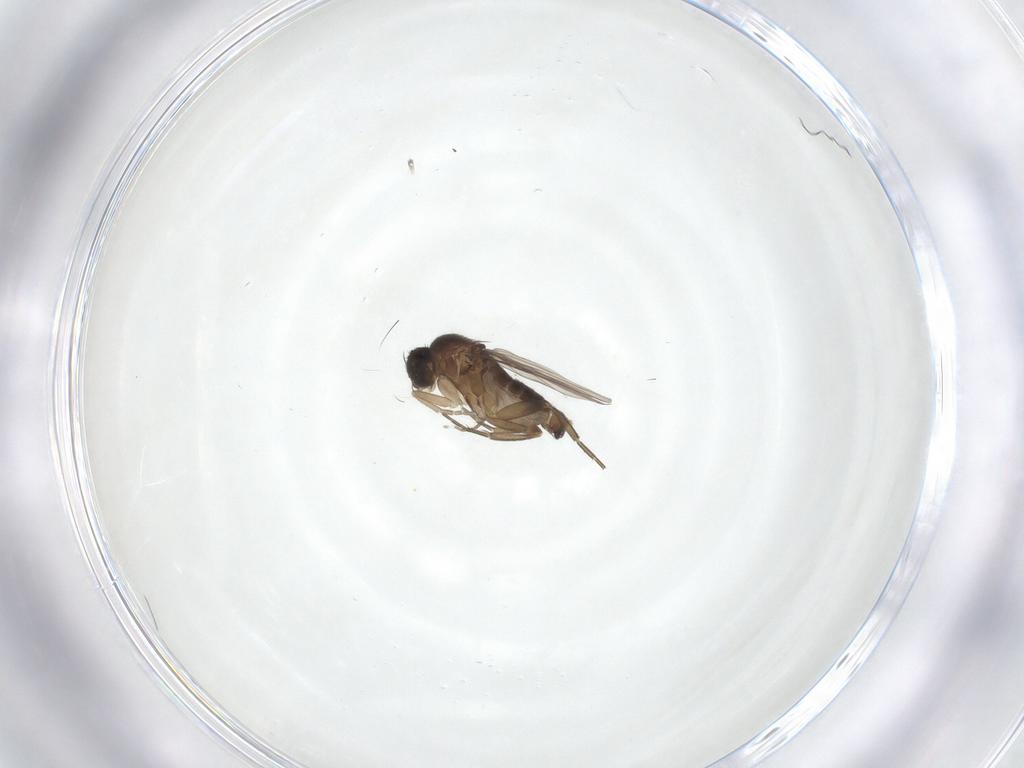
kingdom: Animalia
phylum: Arthropoda
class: Insecta
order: Diptera
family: Phoridae
